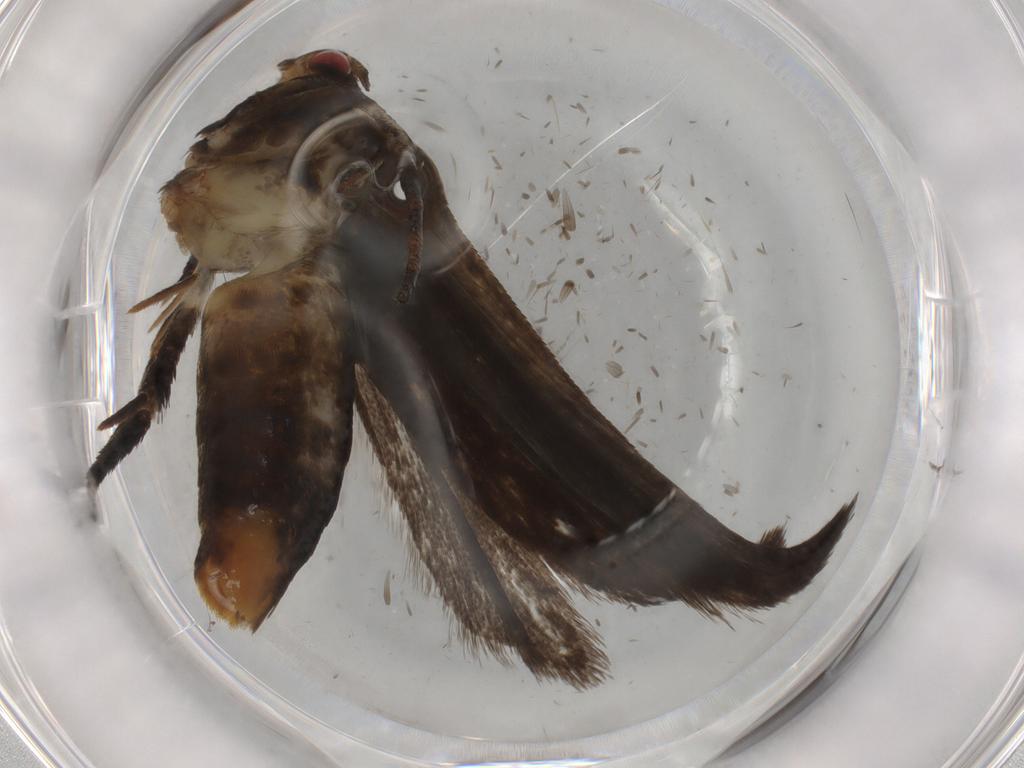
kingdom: Animalia
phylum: Arthropoda
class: Insecta
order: Lepidoptera
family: Gelechiidae
